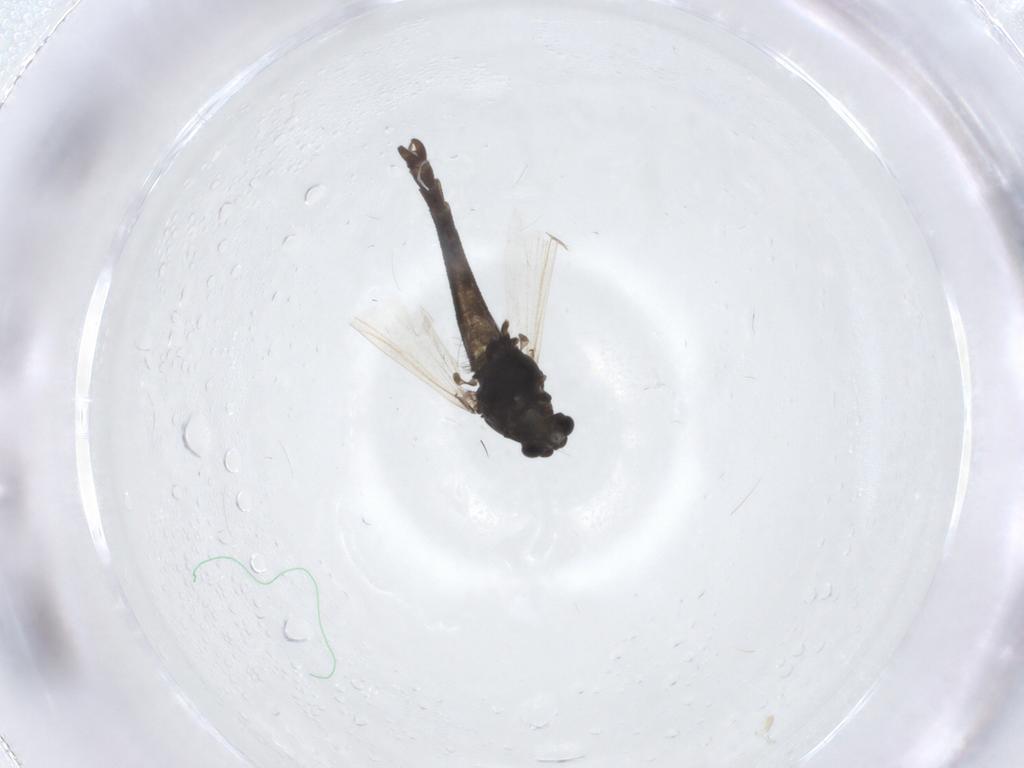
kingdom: Animalia
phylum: Arthropoda
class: Insecta
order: Diptera
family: Chironomidae
